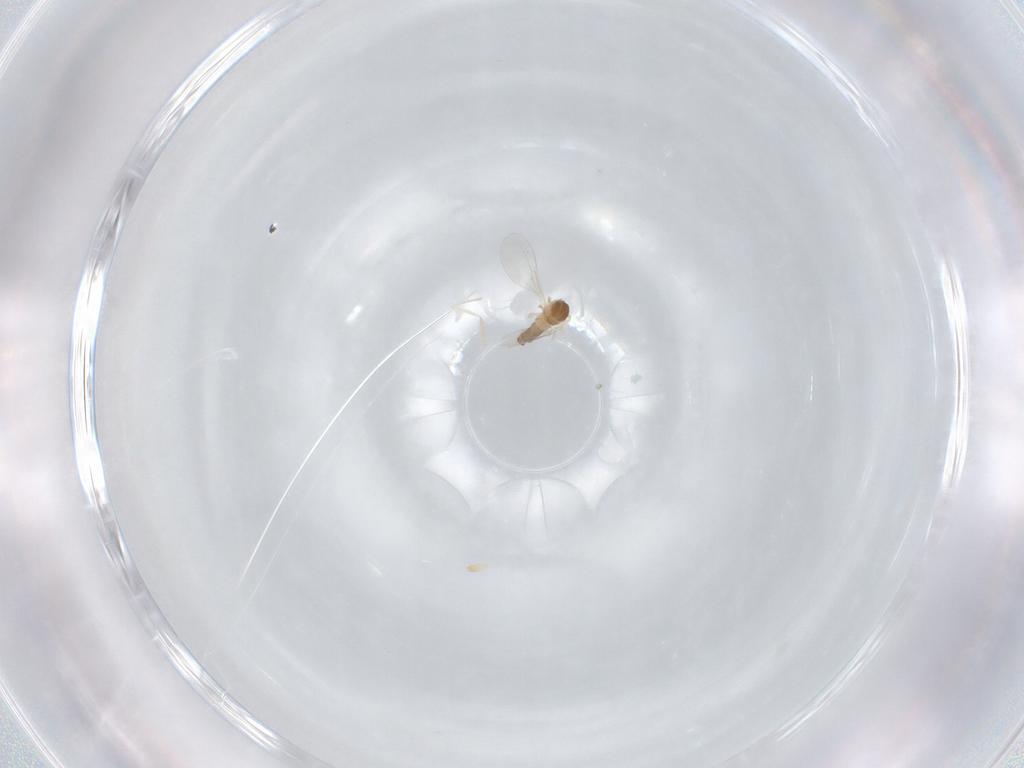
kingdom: Animalia
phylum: Arthropoda
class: Insecta
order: Diptera
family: Cecidomyiidae
